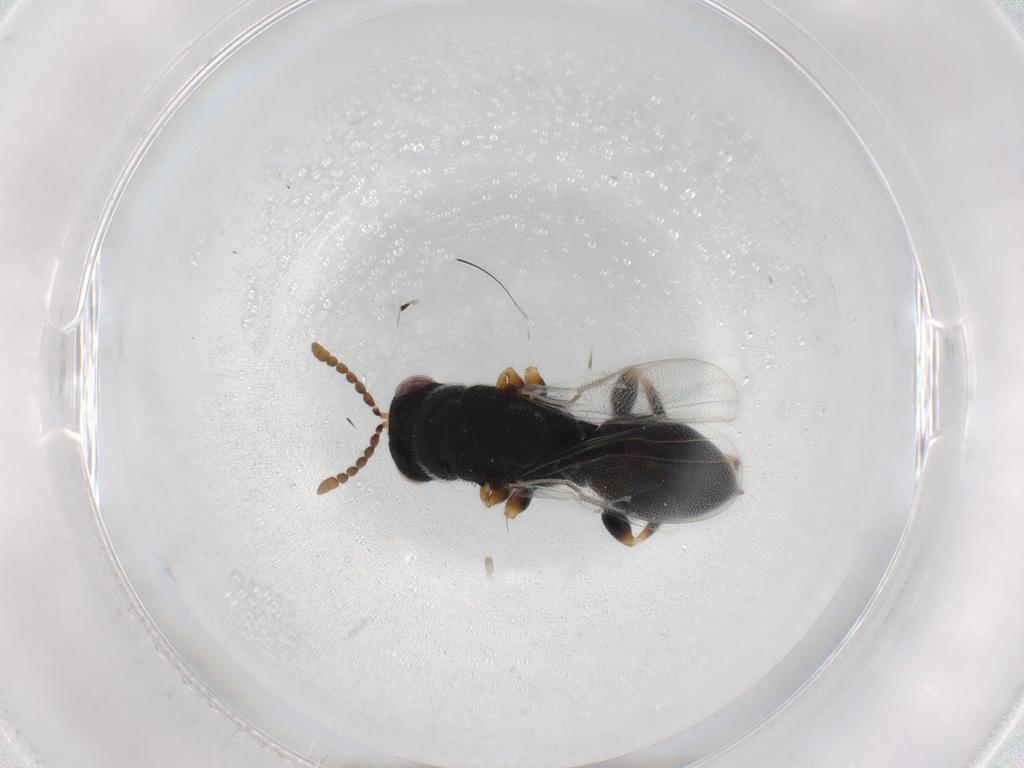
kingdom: Animalia
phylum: Arthropoda
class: Insecta
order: Hymenoptera
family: Eurytomidae
